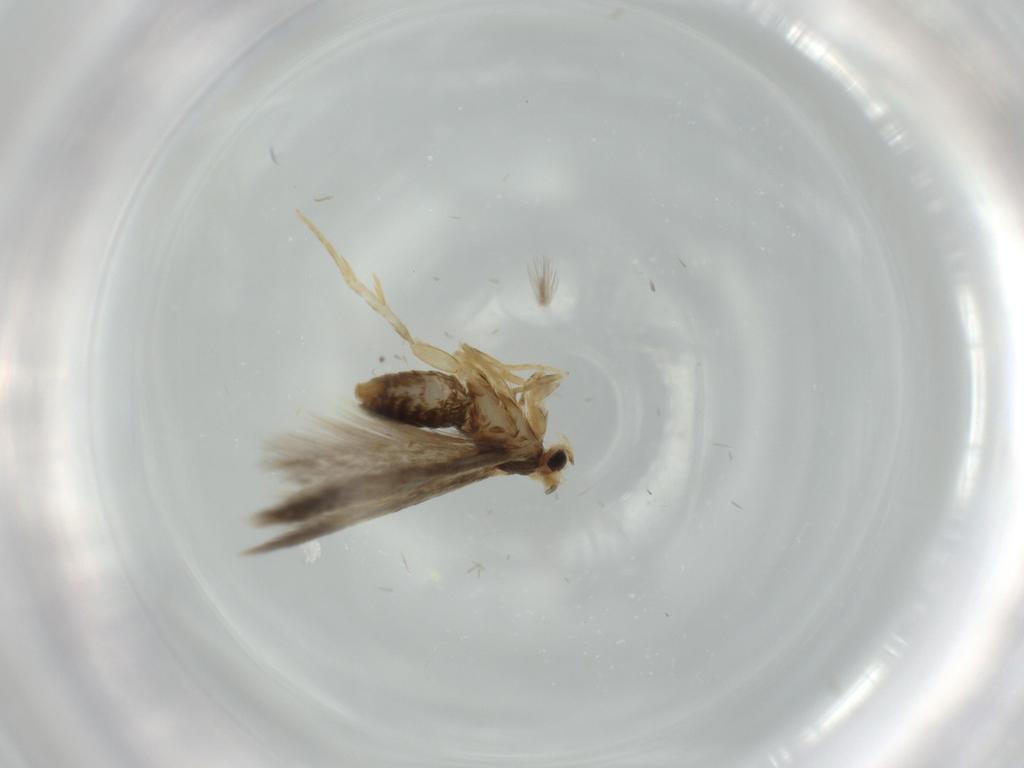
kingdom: Animalia
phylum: Arthropoda
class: Insecta
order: Lepidoptera
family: Nepticulidae
